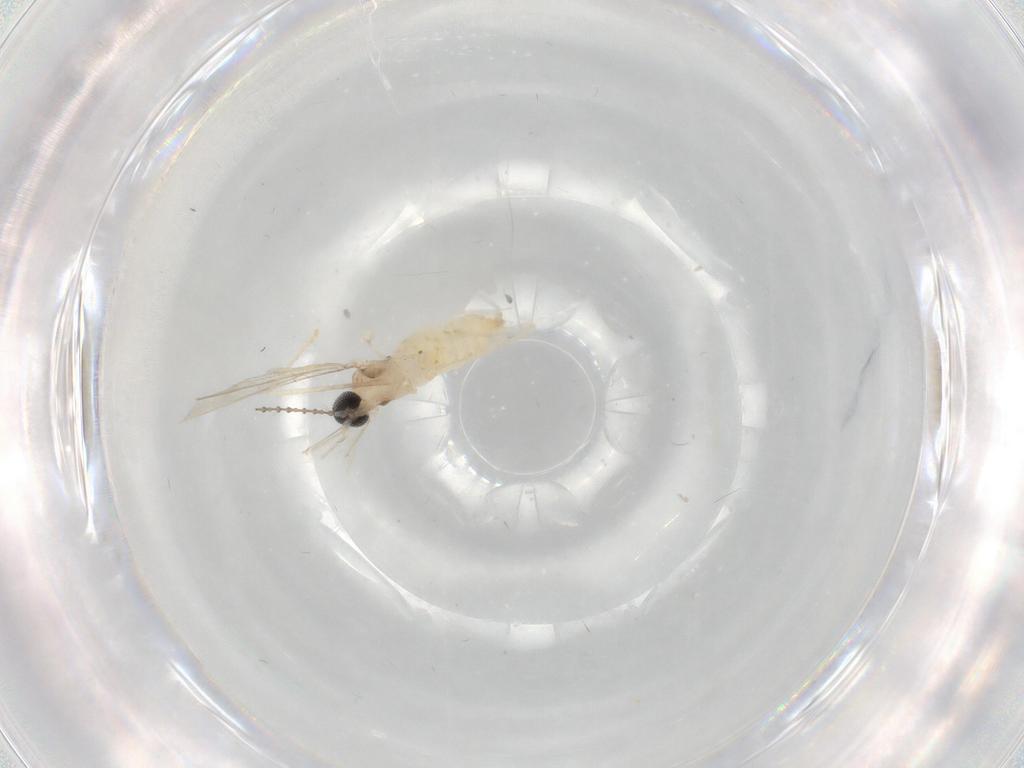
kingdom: Animalia
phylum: Arthropoda
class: Insecta
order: Diptera
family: Cecidomyiidae
